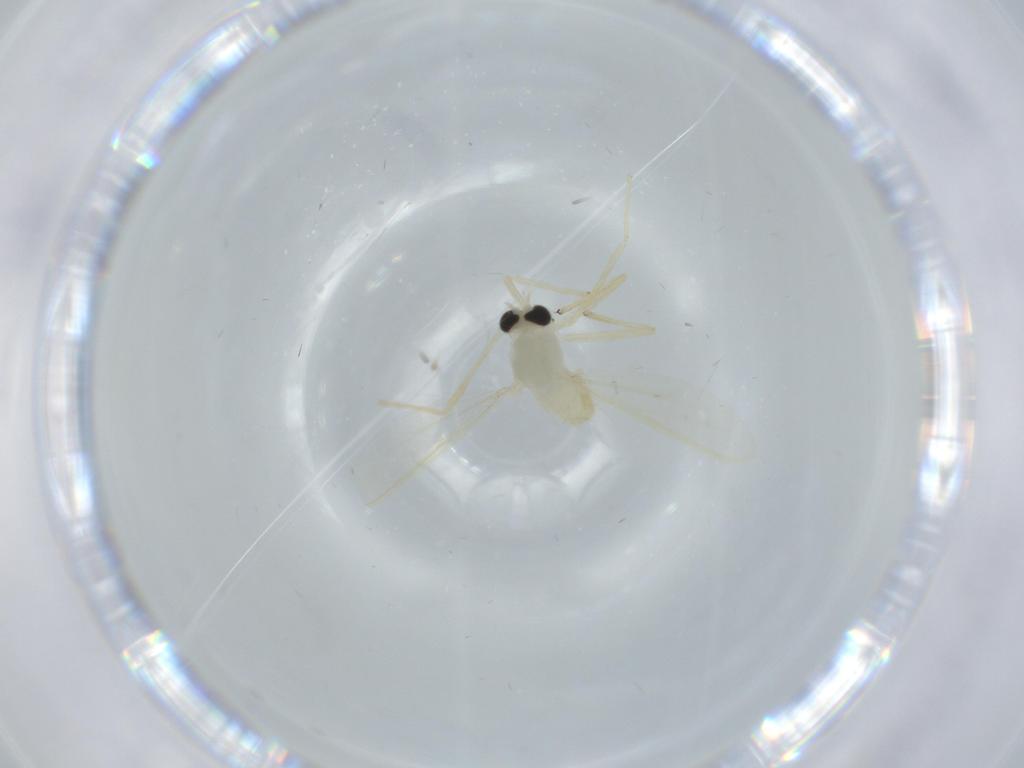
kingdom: Animalia
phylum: Arthropoda
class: Insecta
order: Diptera
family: Chironomidae
